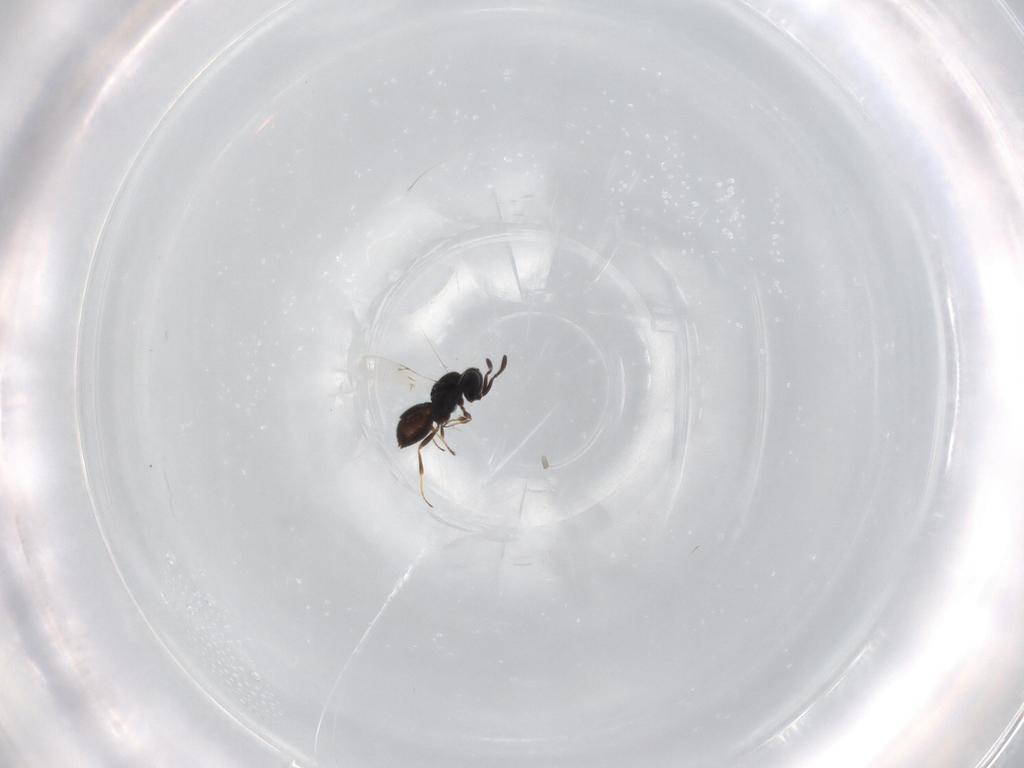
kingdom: Animalia
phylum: Arthropoda
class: Insecta
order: Hymenoptera
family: Scelionidae
